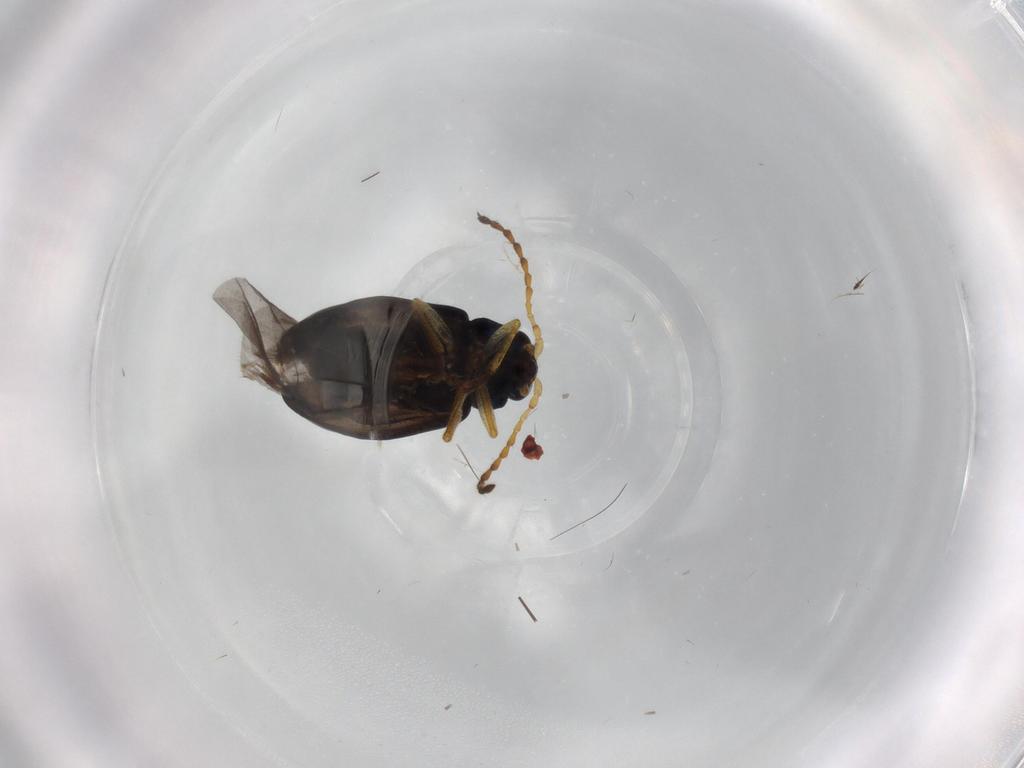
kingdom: Animalia
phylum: Arthropoda
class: Insecta
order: Coleoptera
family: Chrysomelidae
